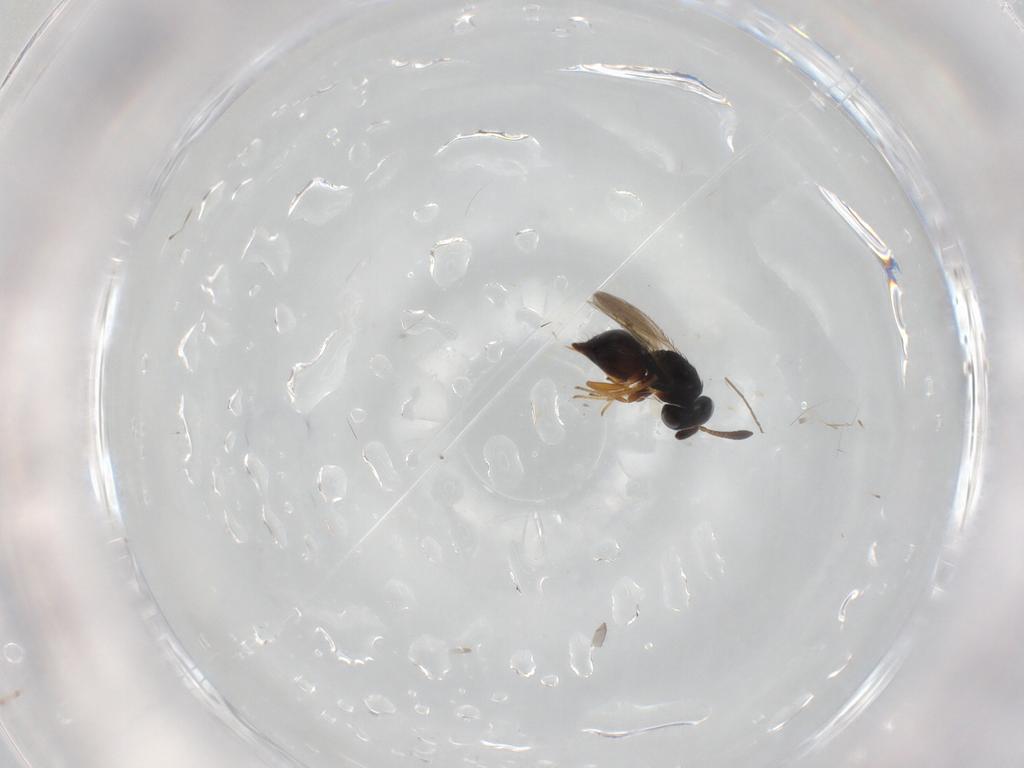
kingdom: Animalia
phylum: Arthropoda
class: Insecta
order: Hymenoptera
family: Diparidae
